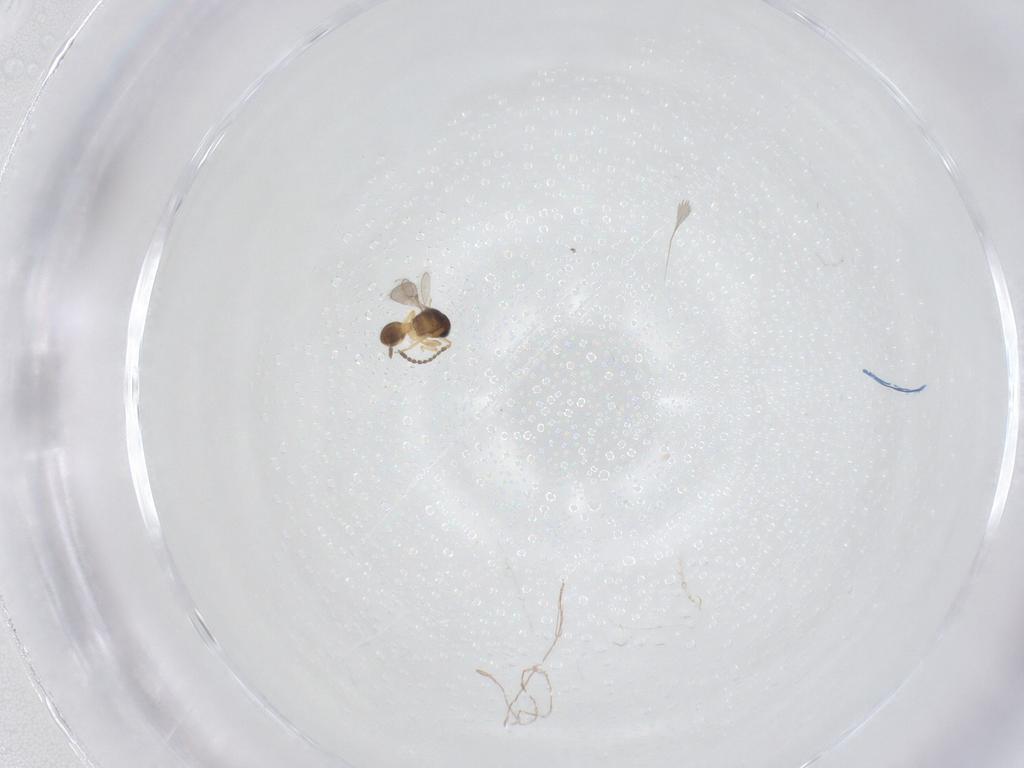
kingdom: Animalia
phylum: Arthropoda
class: Insecta
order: Hymenoptera
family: Scelionidae
